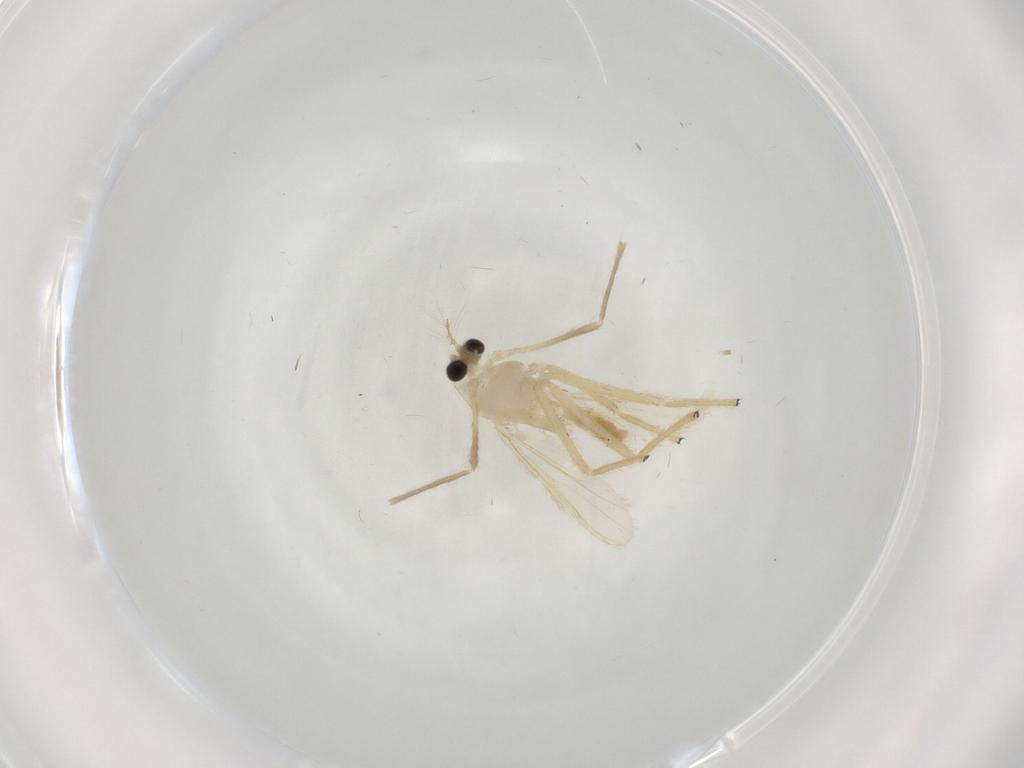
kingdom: Animalia
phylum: Arthropoda
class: Insecta
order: Diptera
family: Chironomidae
